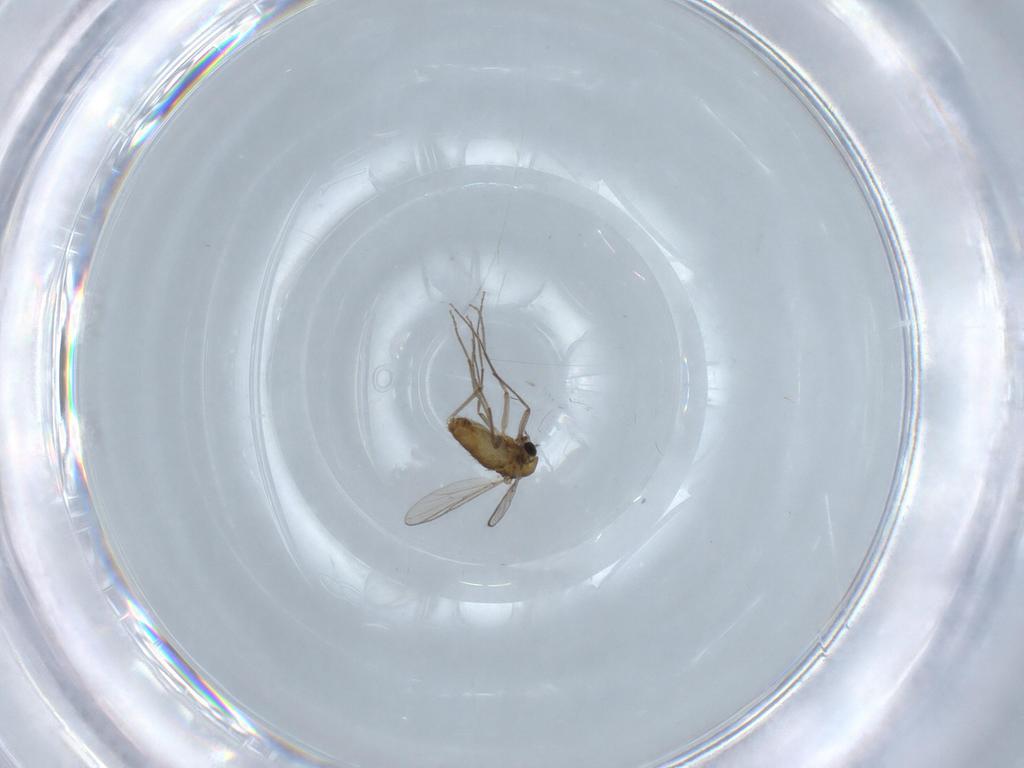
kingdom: Animalia
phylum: Arthropoda
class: Insecta
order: Diptera
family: Chironomidae
